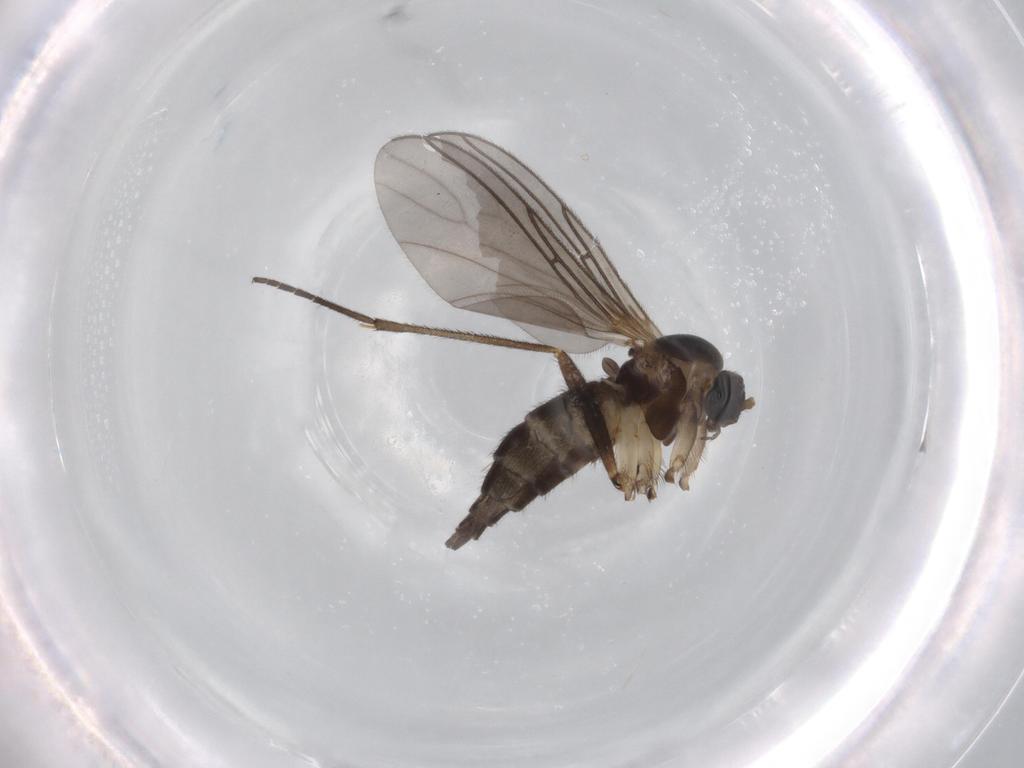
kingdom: Animalia
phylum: Arthropoda
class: Insecta
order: Diptera
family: Sciaridae
